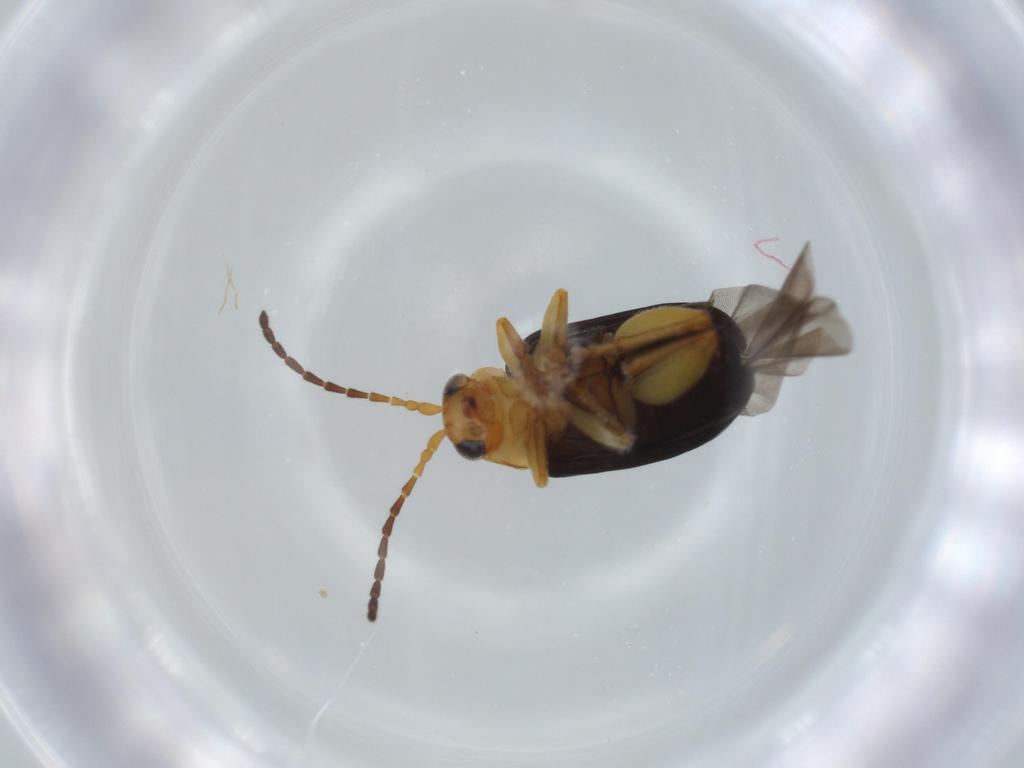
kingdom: Animalia
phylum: Arthropoda
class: Insecta
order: Coleoptera
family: Chrysomelidae
